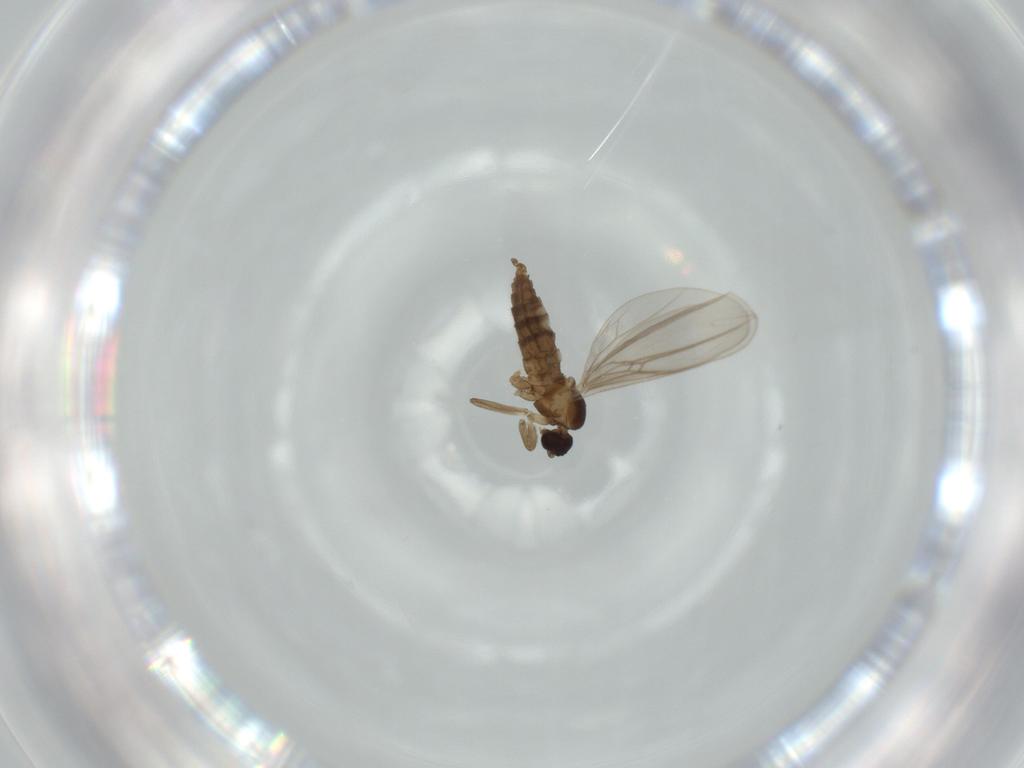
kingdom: Animalia
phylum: Arthropoda
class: Insecta
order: Diptera
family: Cecidomyiidae
